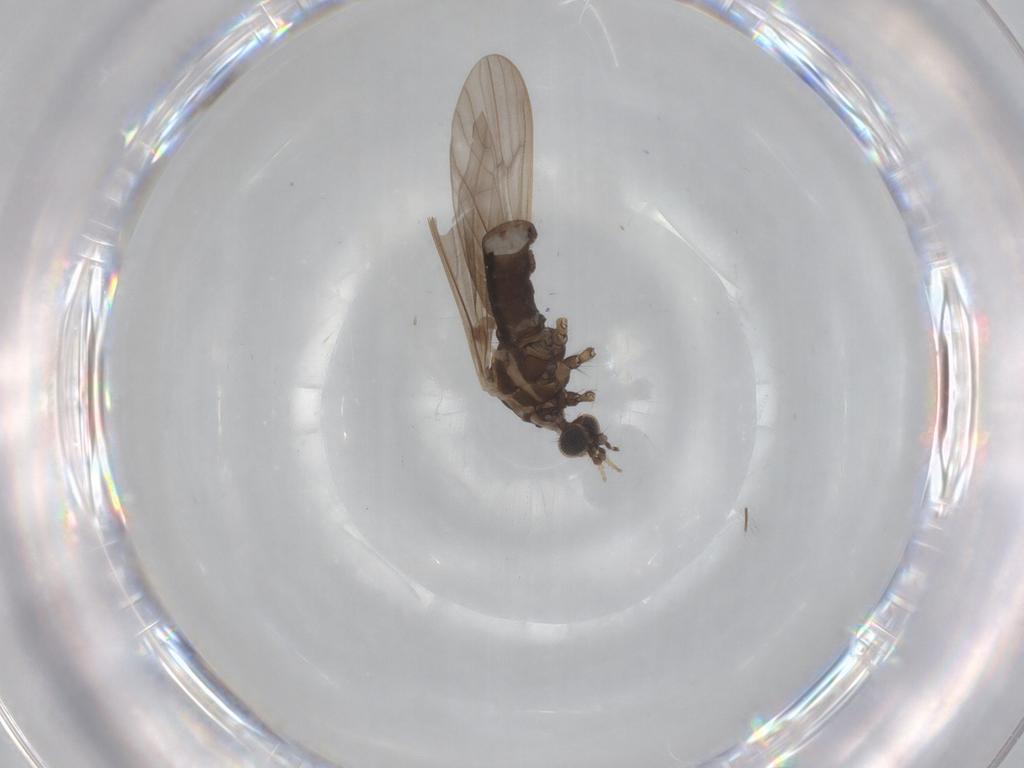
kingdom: Animalia
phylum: Arthropoda
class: Insecta
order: Diptera
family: Limoniidae
